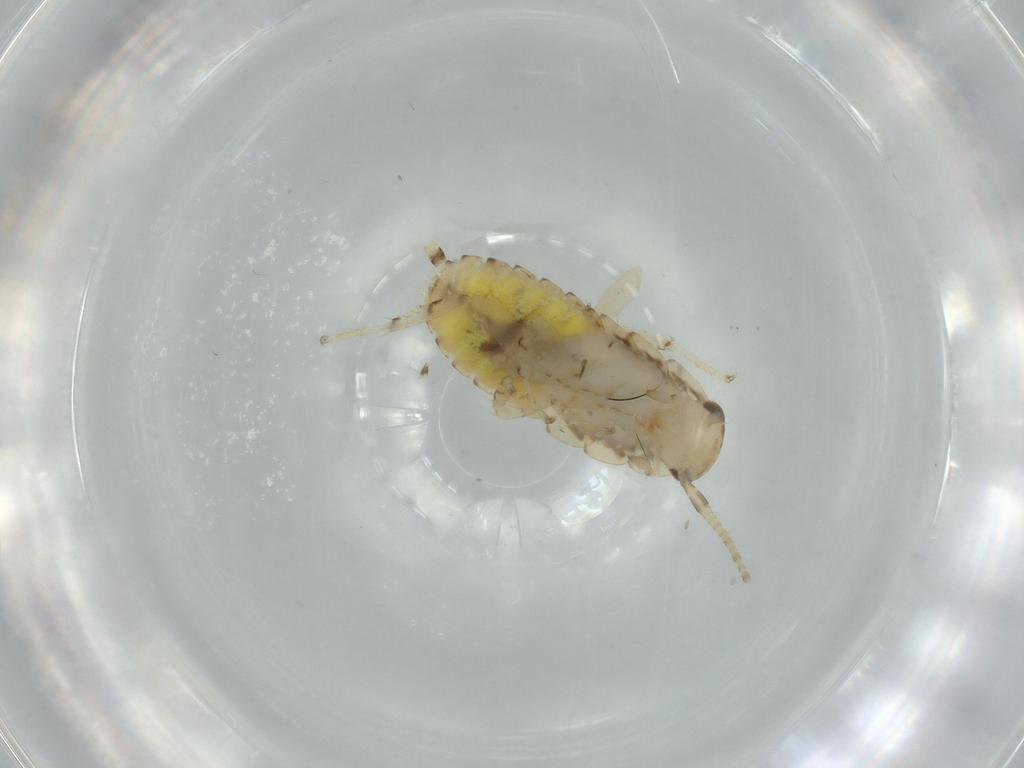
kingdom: Animalia
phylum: Arthropoda
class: Insecta
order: Blattodea
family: Ectobiidae
